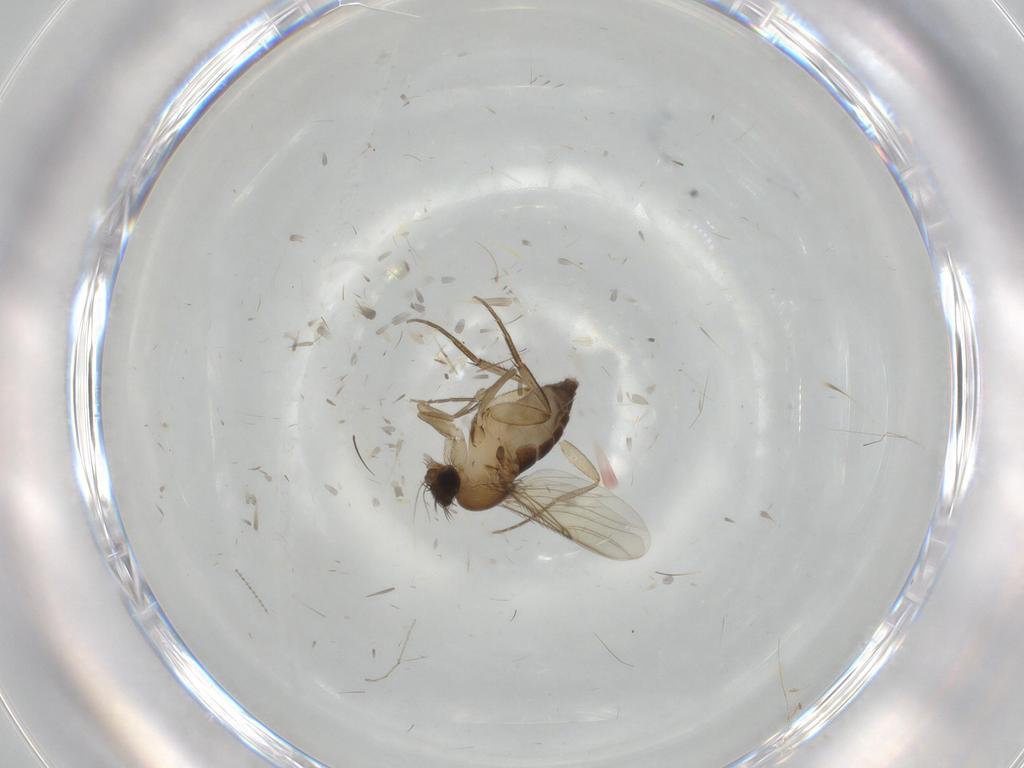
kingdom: Animalia
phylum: Arthropoda
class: Insecta
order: Diptera
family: Phoridae
